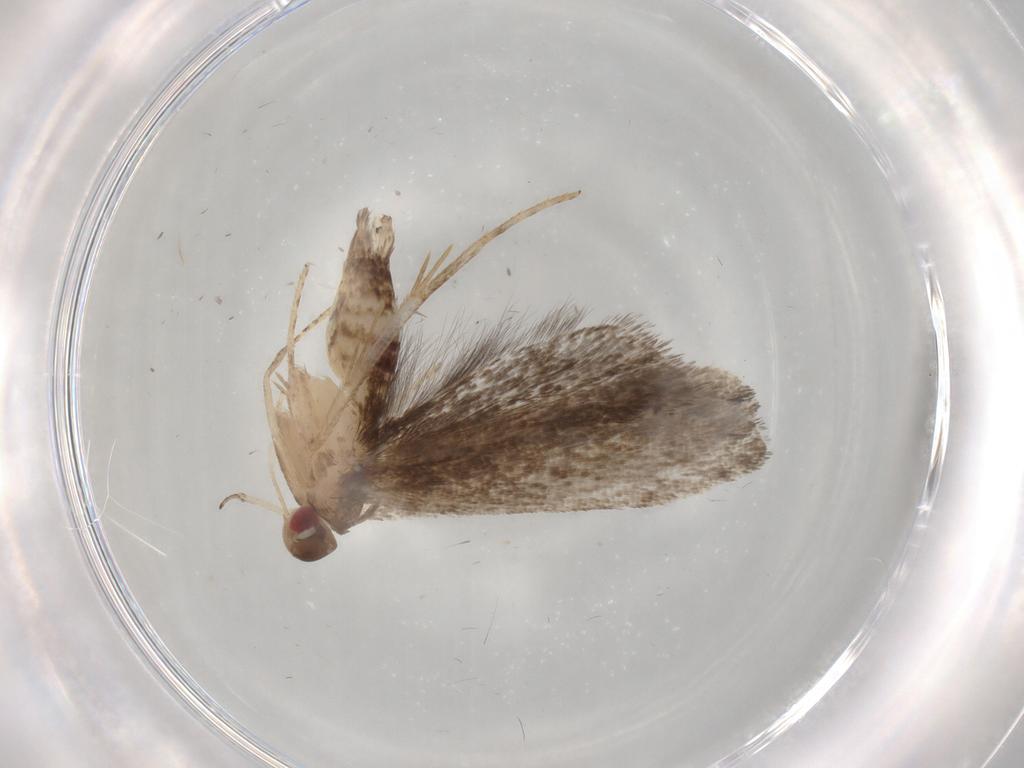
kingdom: Animalia
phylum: Arthropoda
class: Insecta
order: Lepidoptera
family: Gelechiidae
